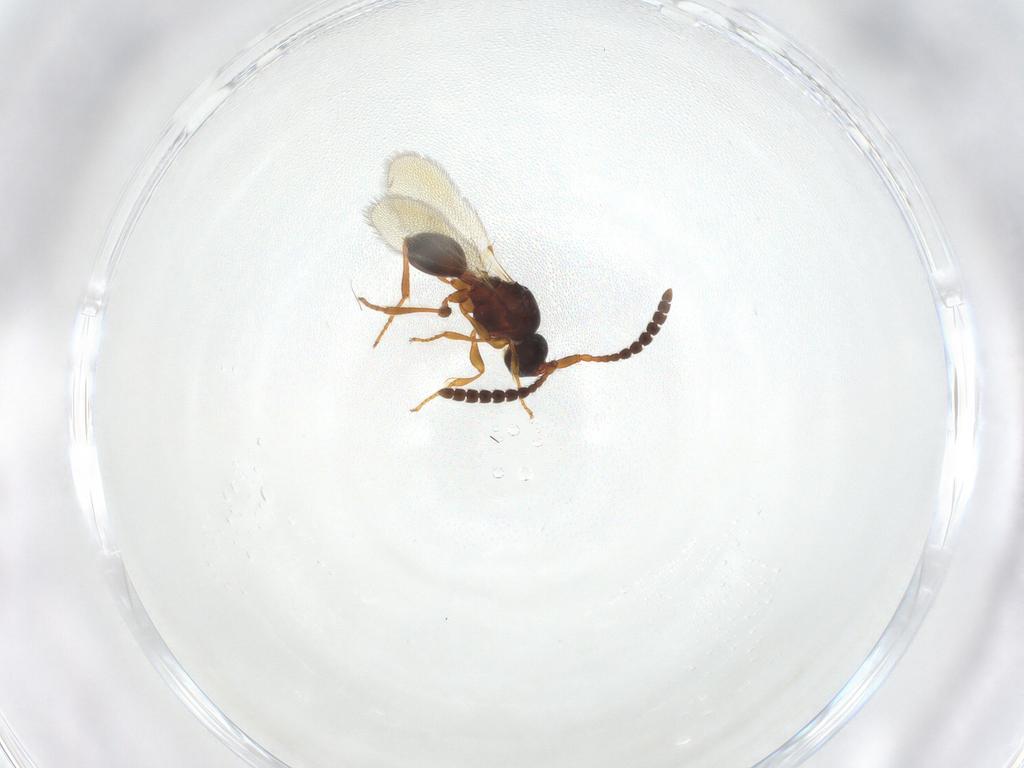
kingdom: Animalia
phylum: Arthropoda
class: Insecta
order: Hymenoptera
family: Diapriidae
